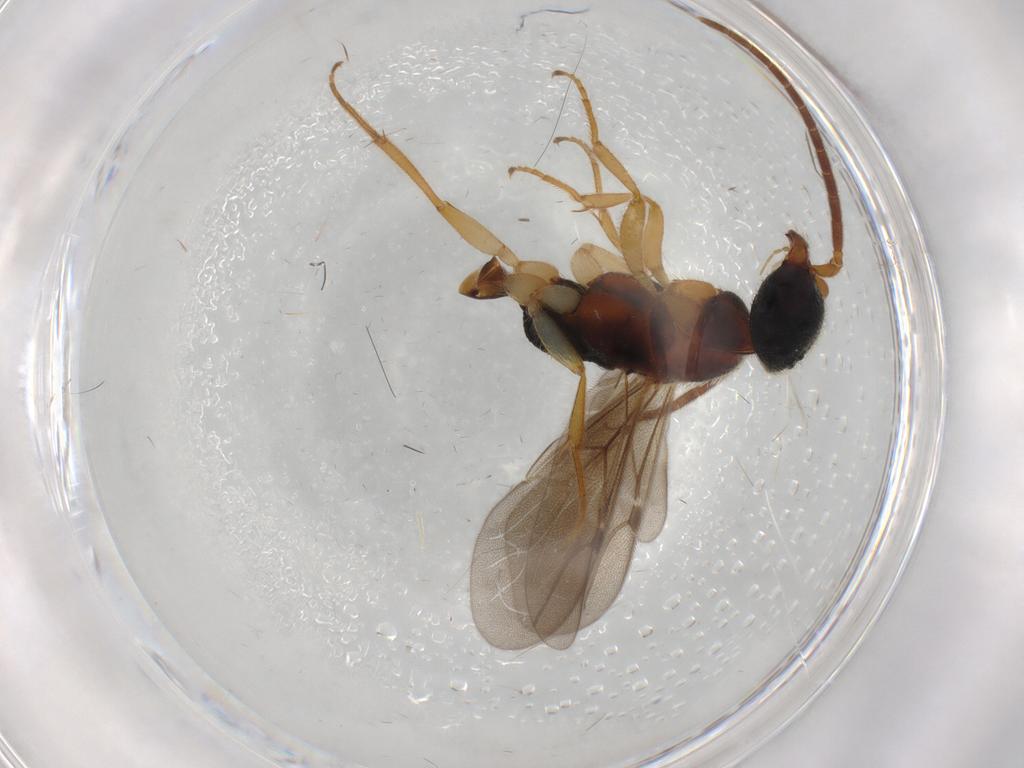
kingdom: Animalia
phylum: Arthropoda
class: Insecta
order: Hymenoptera
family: Bethylidae
